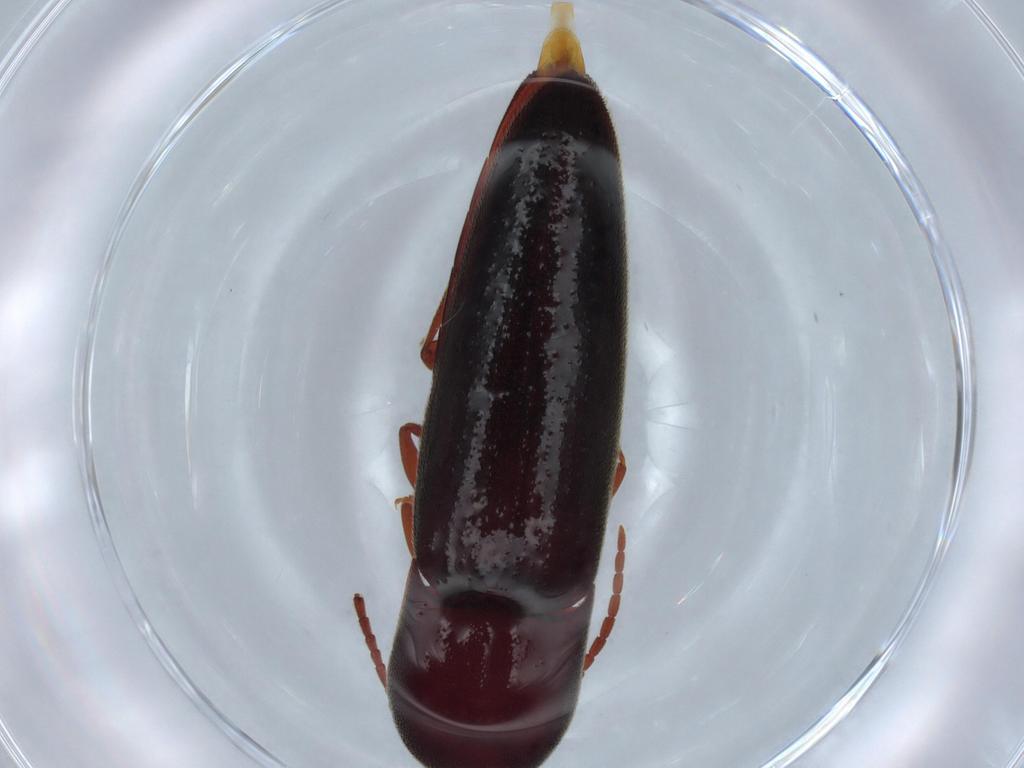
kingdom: Animalia
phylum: Arthropoda
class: Insecta
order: Coleoptera
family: Eucnemidae
